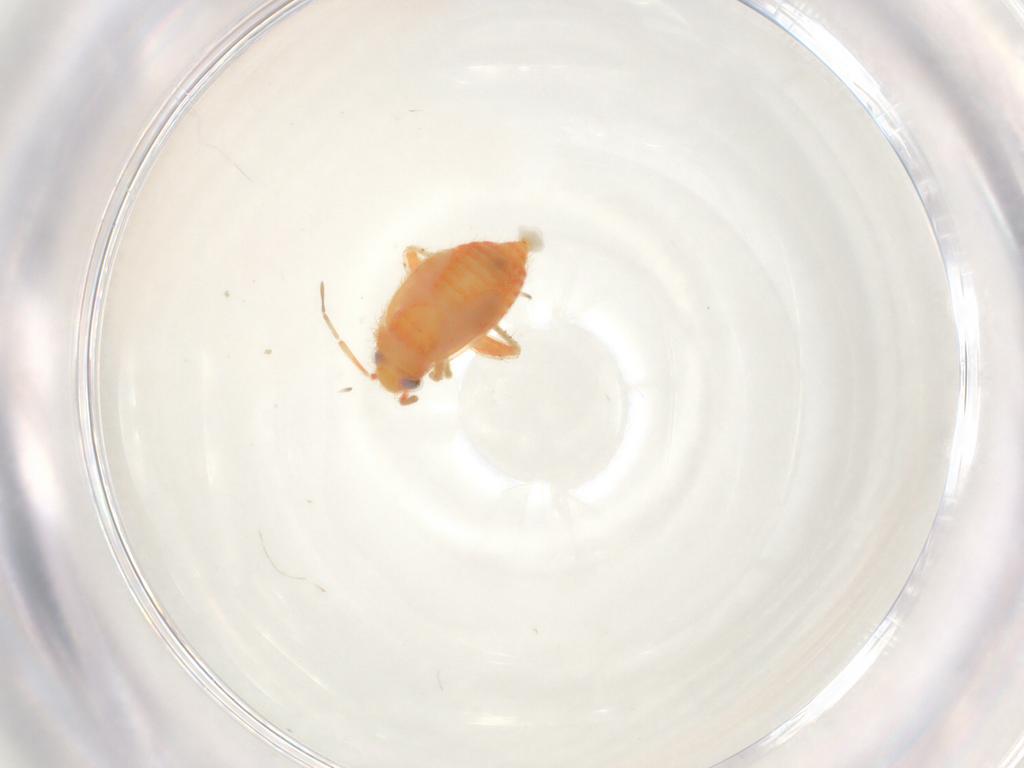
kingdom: Animalia
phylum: Arthropoda
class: Insecta
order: Hemiptera
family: Miridae
